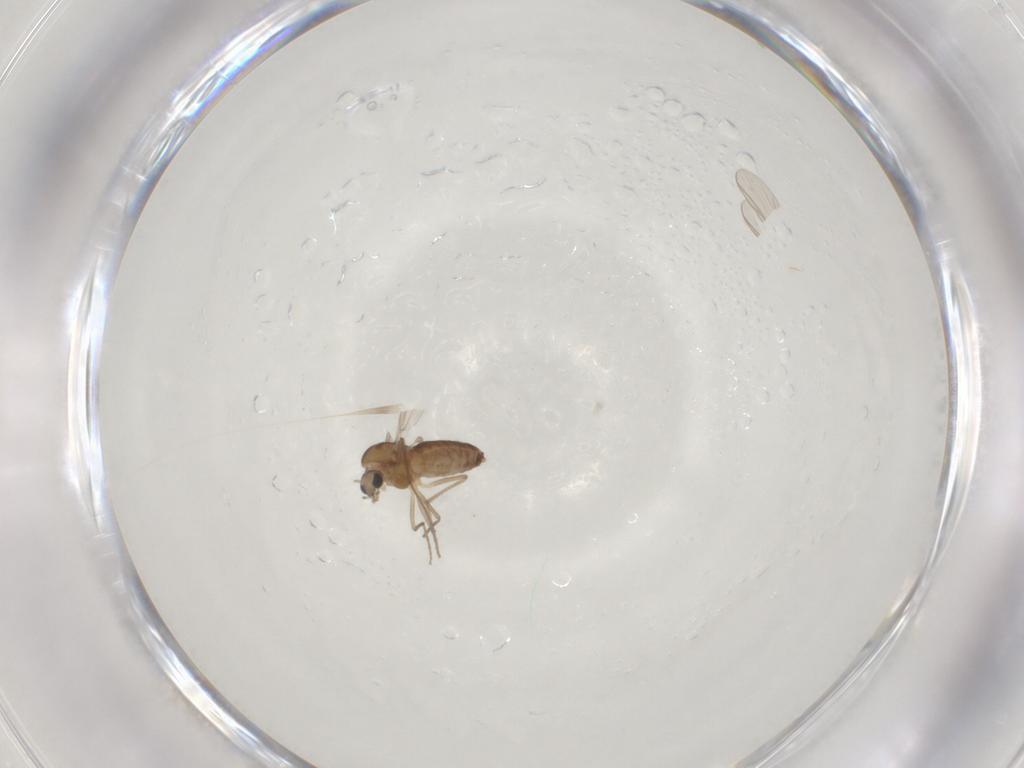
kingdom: Animalia
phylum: Arthropoda
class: Insecta
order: Diptera
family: Chironomidae
